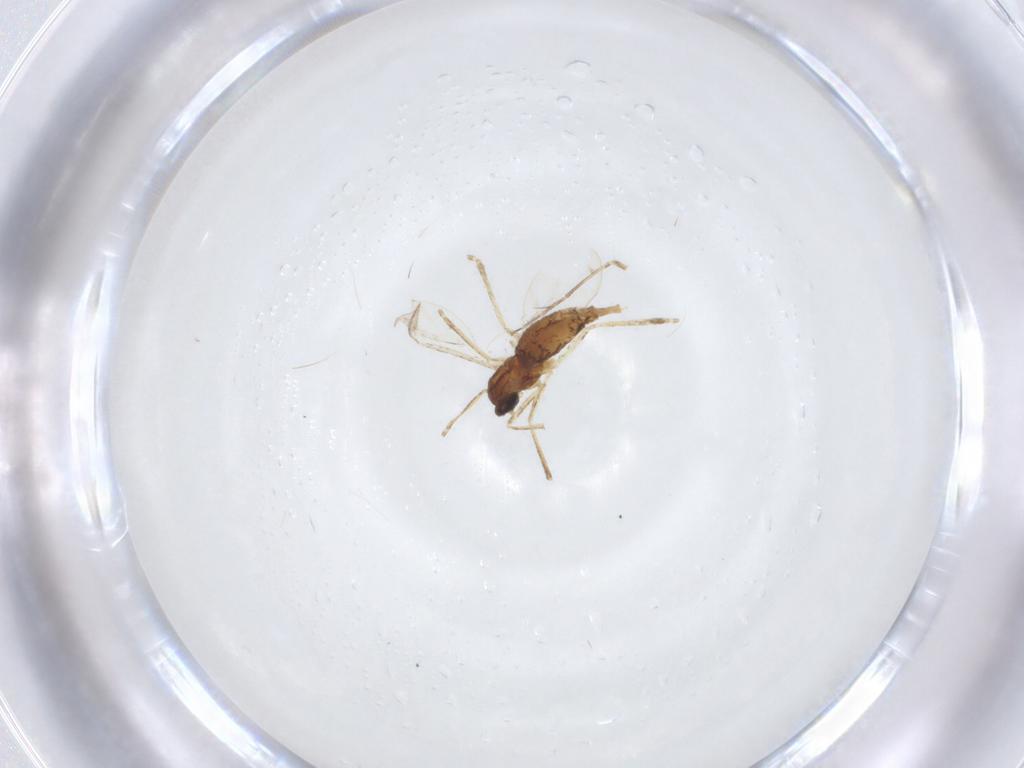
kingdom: Animalia
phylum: Arthropoda
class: Insecta
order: Diptera
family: Cecidomyiidae
